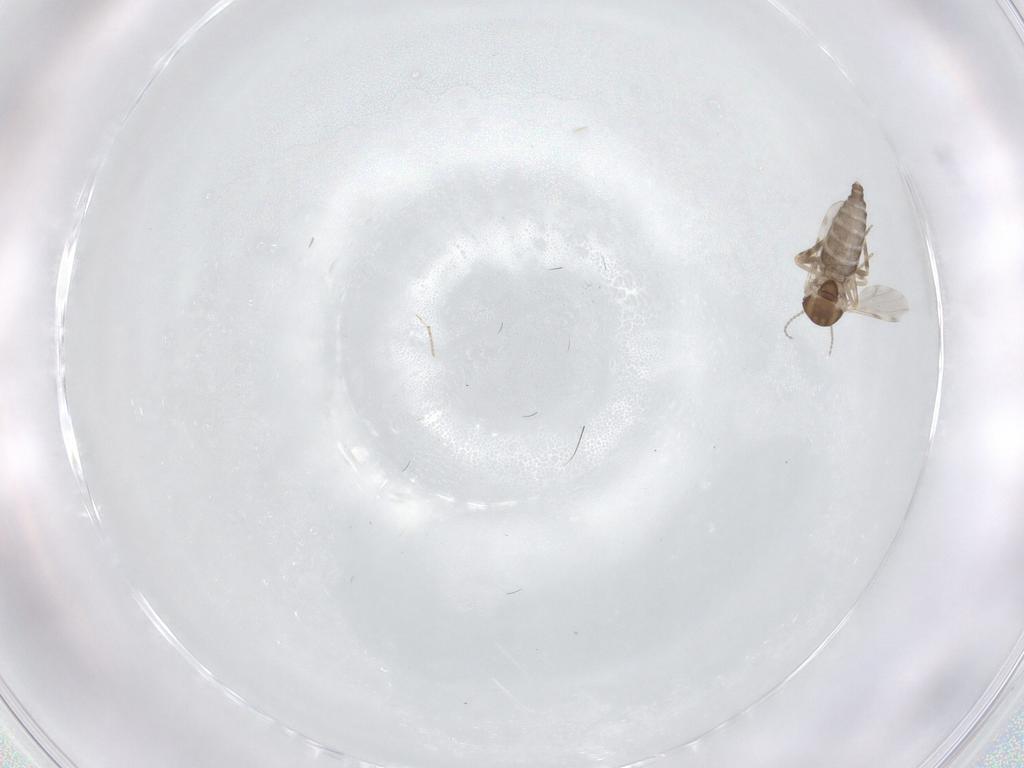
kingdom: Animalia
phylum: Arthropoda
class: Insecta
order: Diptera
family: Ceratopogonidae
